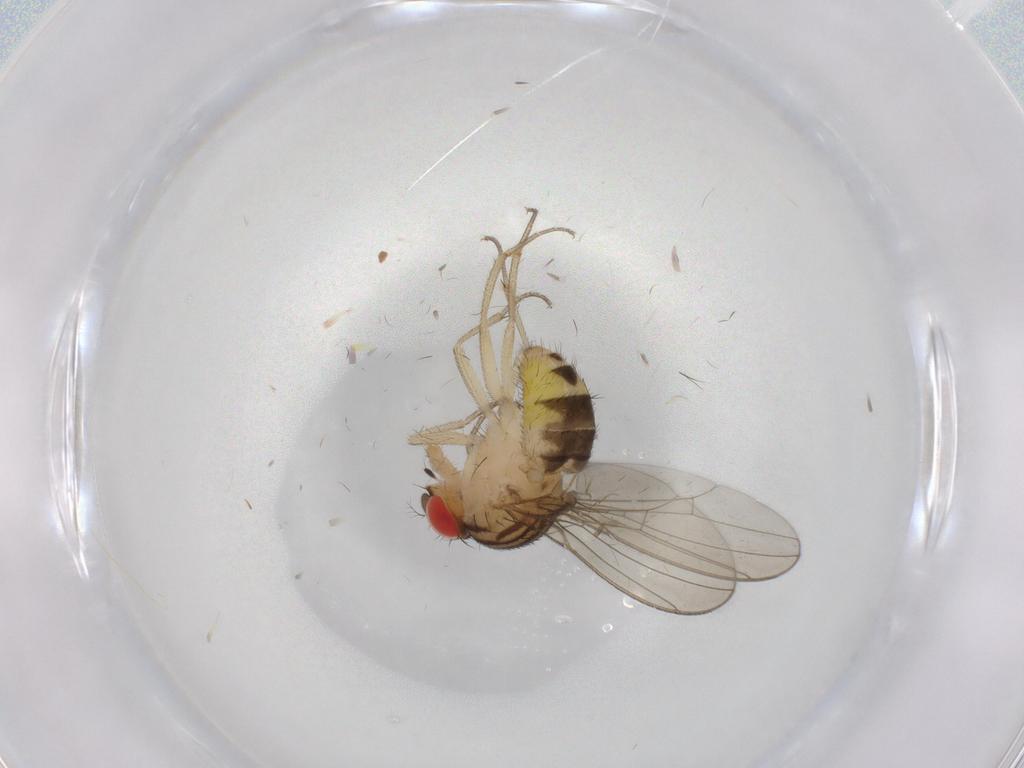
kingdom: Animalia
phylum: Arthropoda
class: Insecta
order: Diptera
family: Drosophilidae
